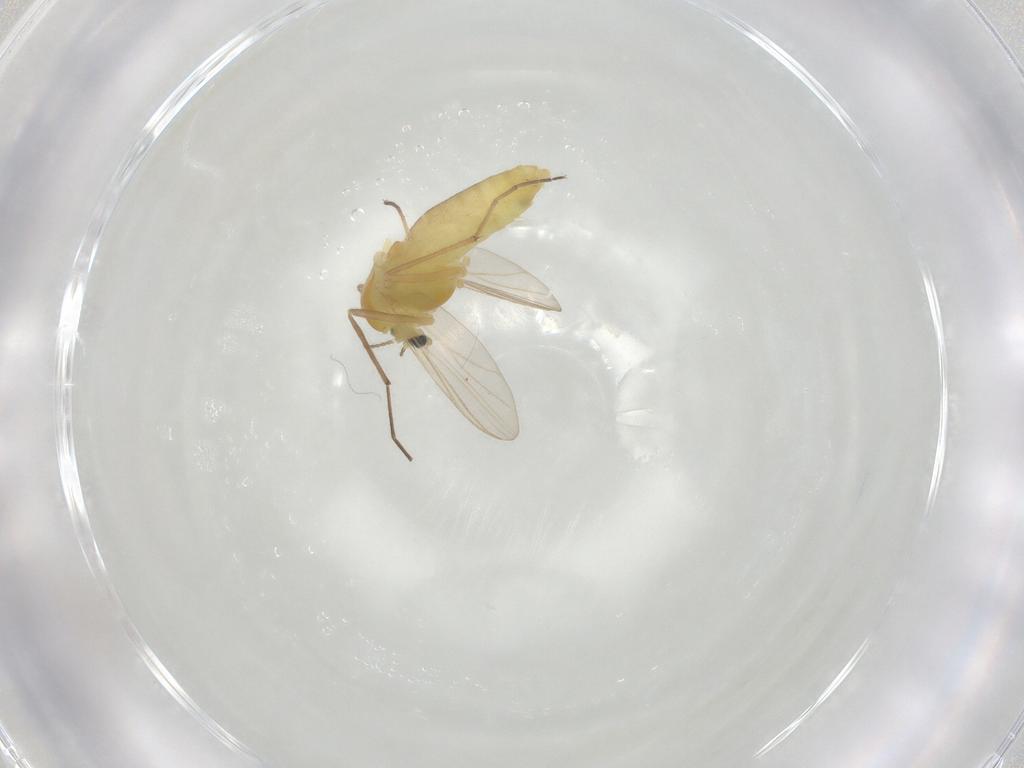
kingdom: Animalia
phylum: Arthropoda
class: Insecta
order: Diptera
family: Chironomidae
